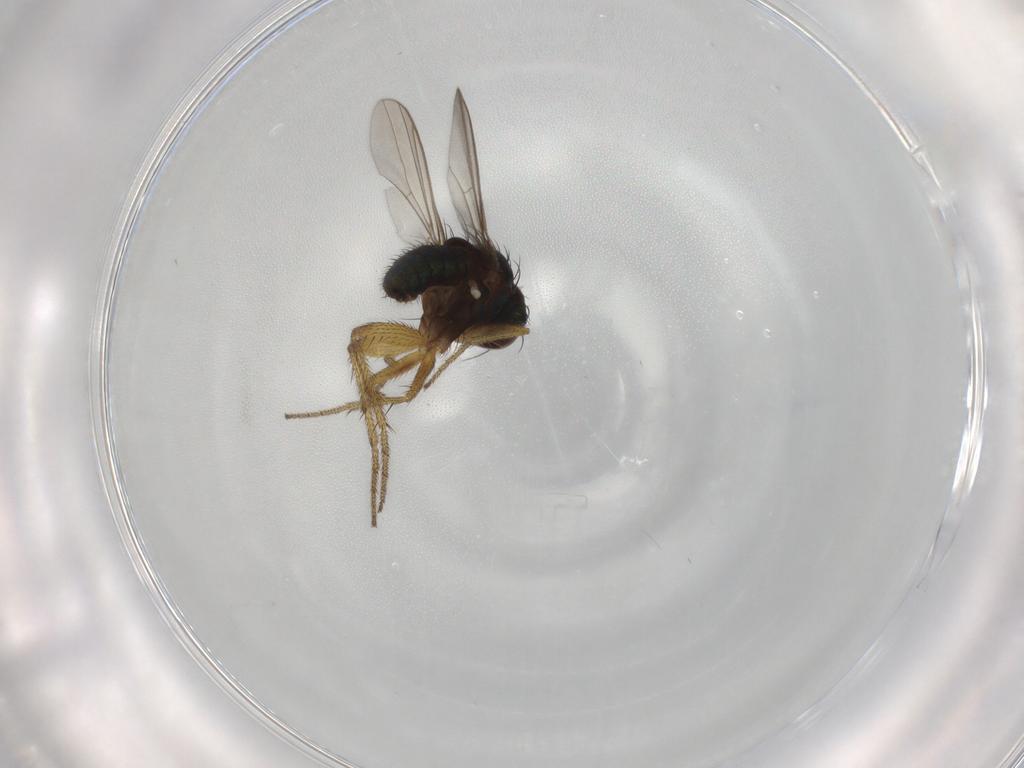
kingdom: Animalia
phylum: Arthropoda
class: Insecta
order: Diptera
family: Dolichopodidae
